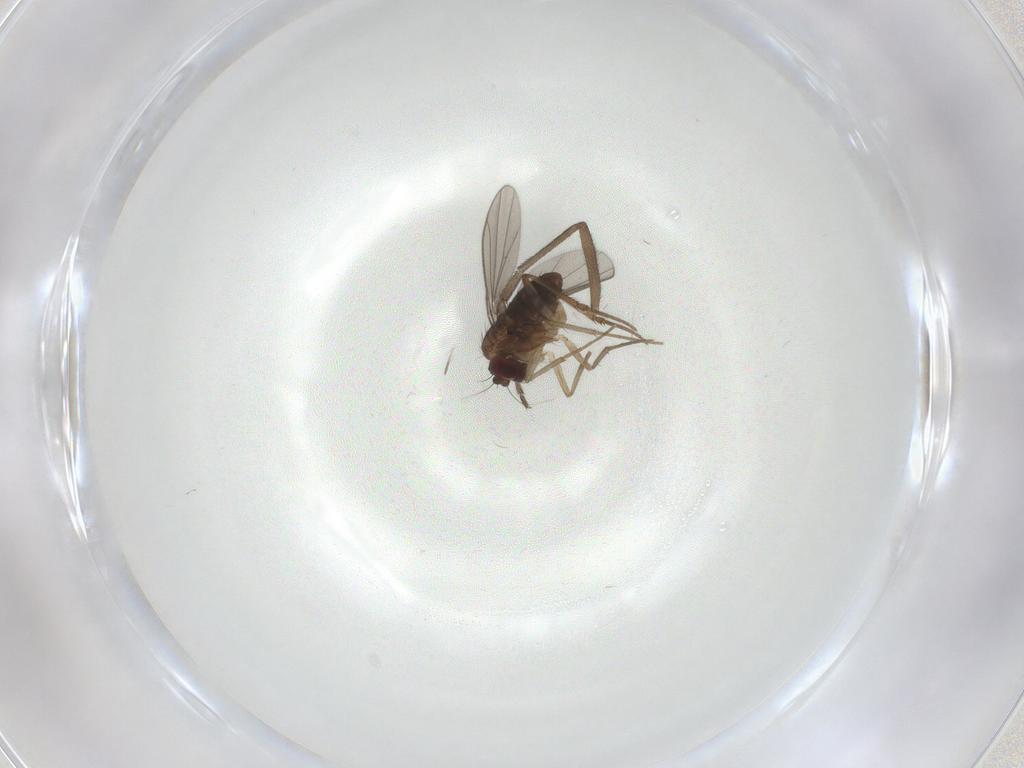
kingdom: Animalia
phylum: Arthropoda
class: Insecta
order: Diptera
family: Dolichopodidae
